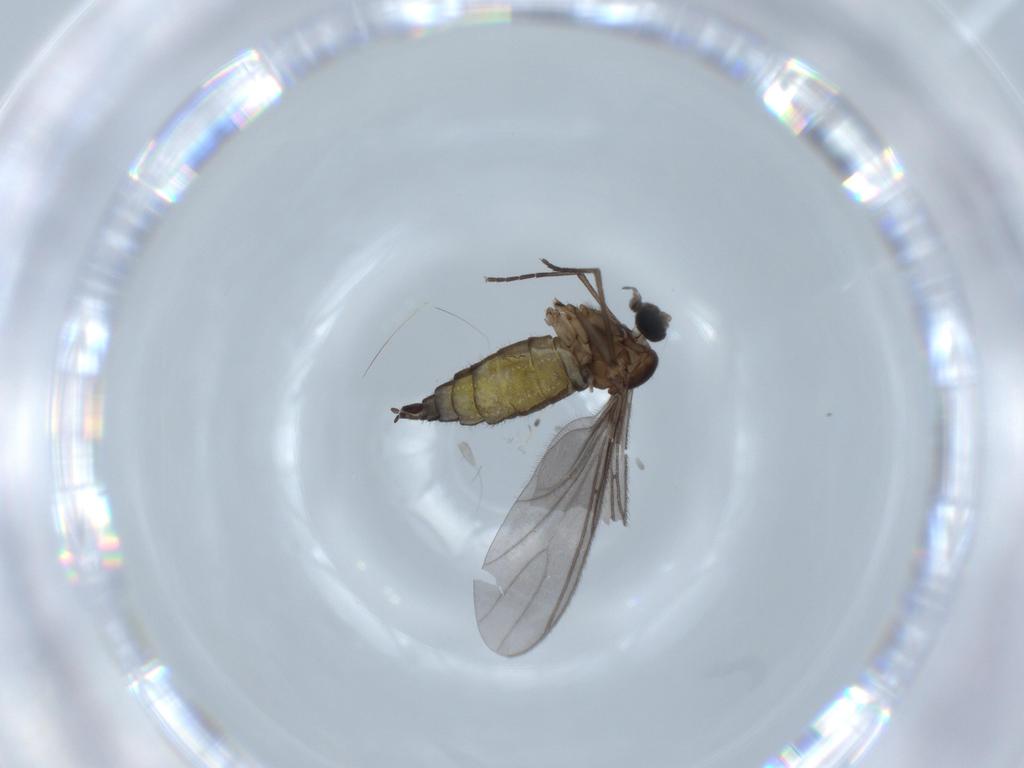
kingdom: Animalia
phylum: Arthropoda
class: Insecta
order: Diptera
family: Sciaridae
